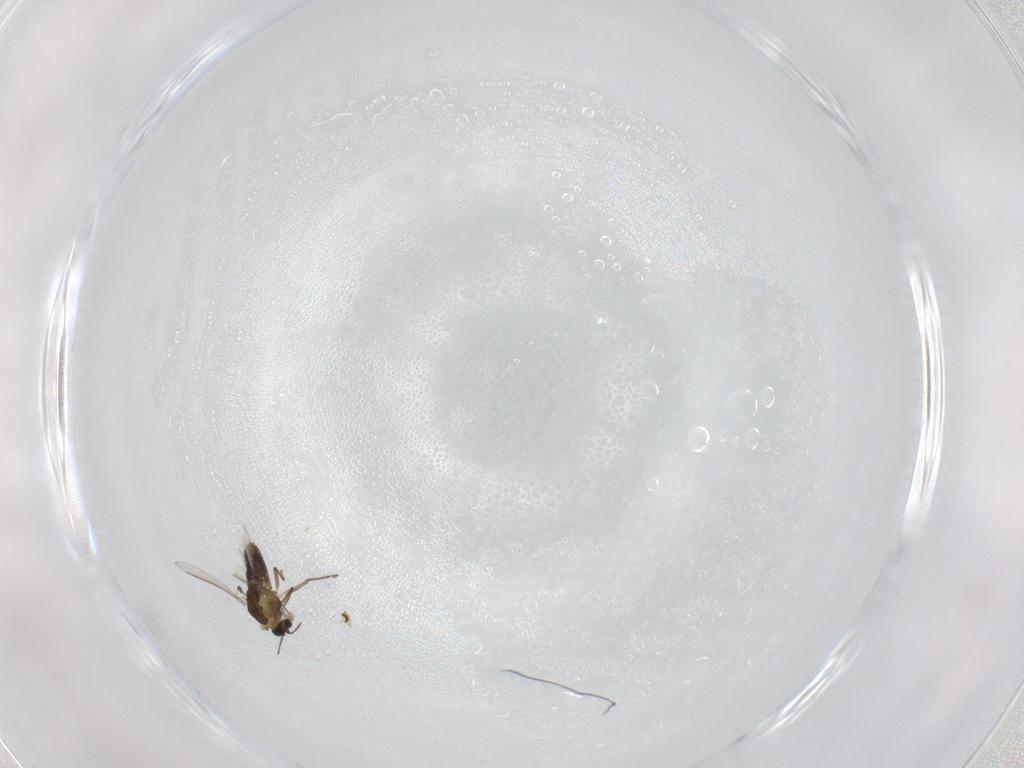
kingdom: Animalia
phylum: Arthropoda
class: Insecta
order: Diptera
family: Chironomidae
